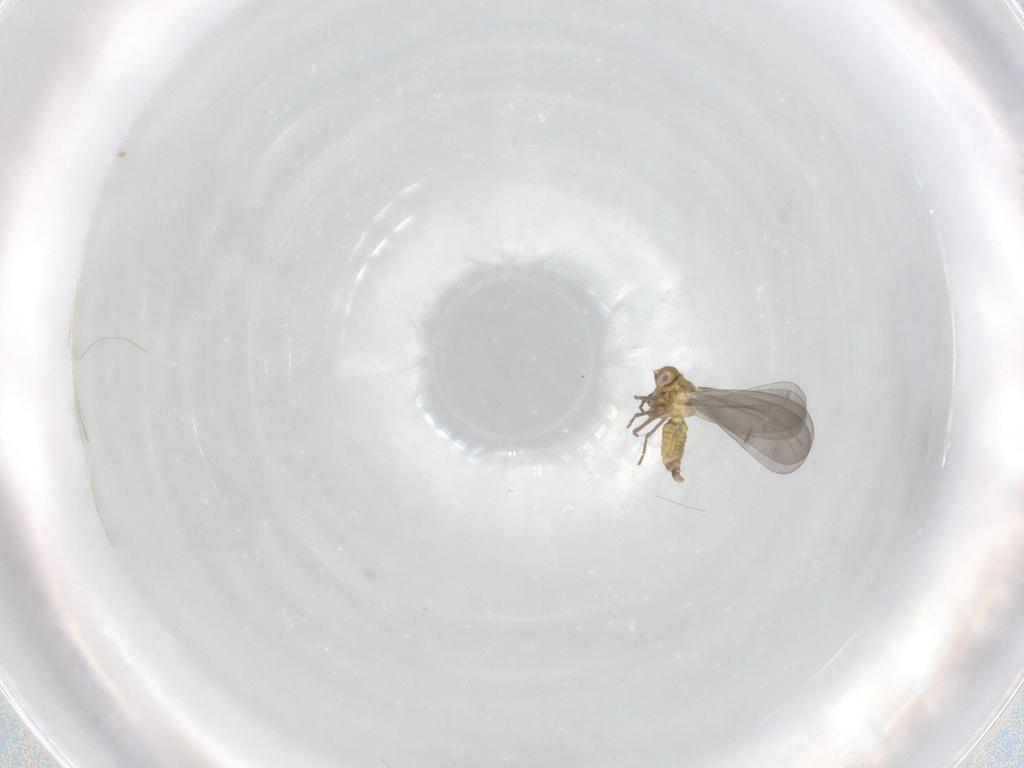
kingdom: Animalia
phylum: Arthropoda
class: Insecta
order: Hemiptera
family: Aleyrodidae
